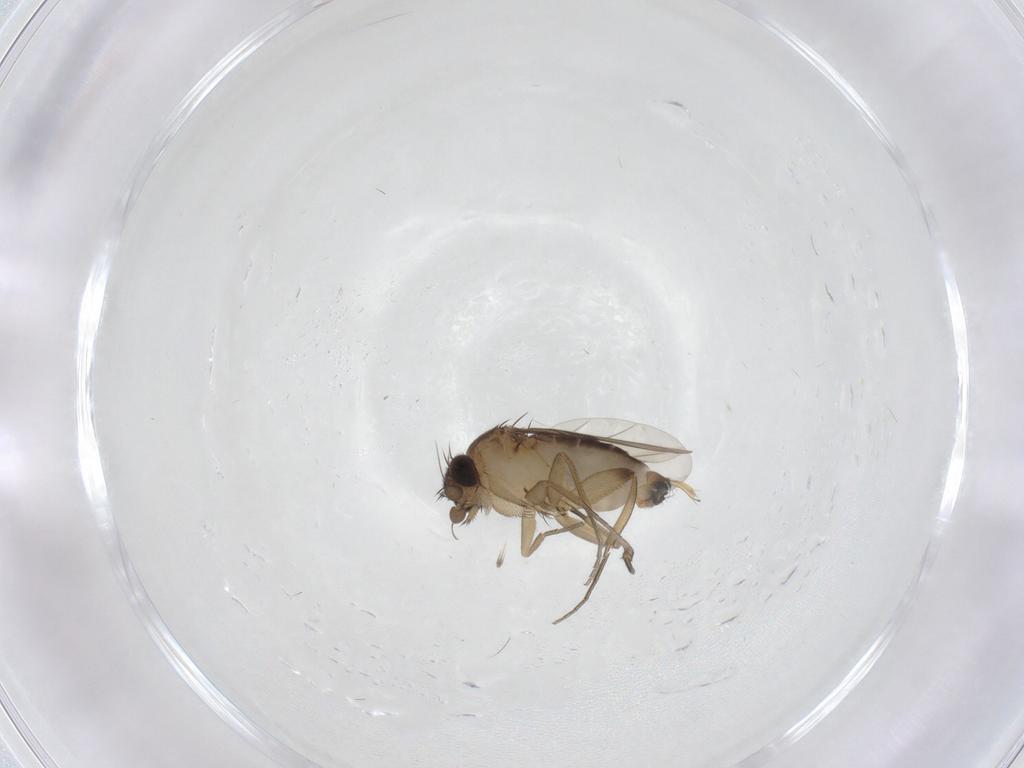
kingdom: Animalia
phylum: Arthropoda
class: Insecta
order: Diptera
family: Phoridae
